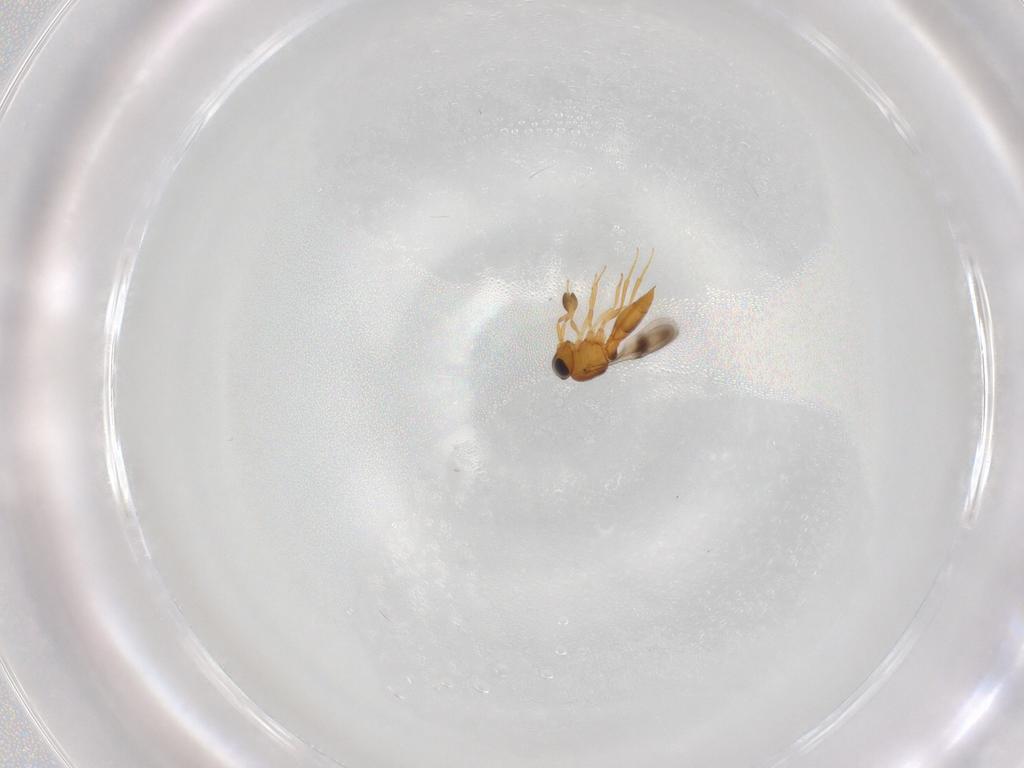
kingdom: Animalia
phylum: Arthropoda
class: Insecta
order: Hymenoptera
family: Scelionidae
